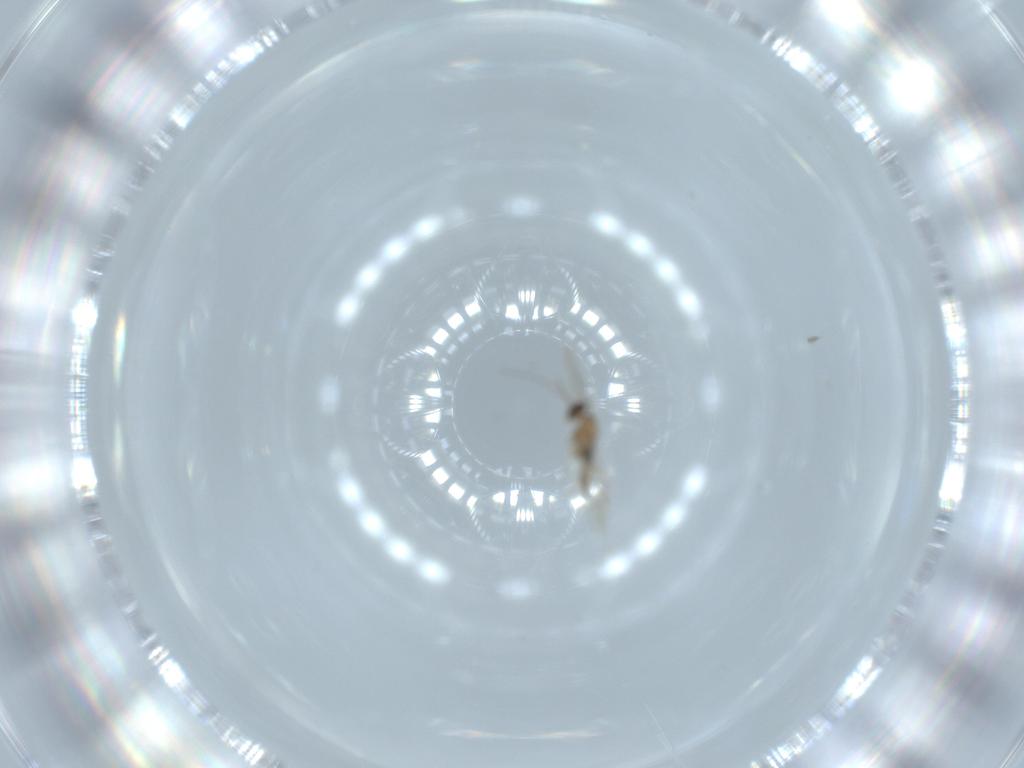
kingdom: Animalia
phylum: Arthropoda
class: Insecta
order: Diptera
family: Cecidomyiidae
